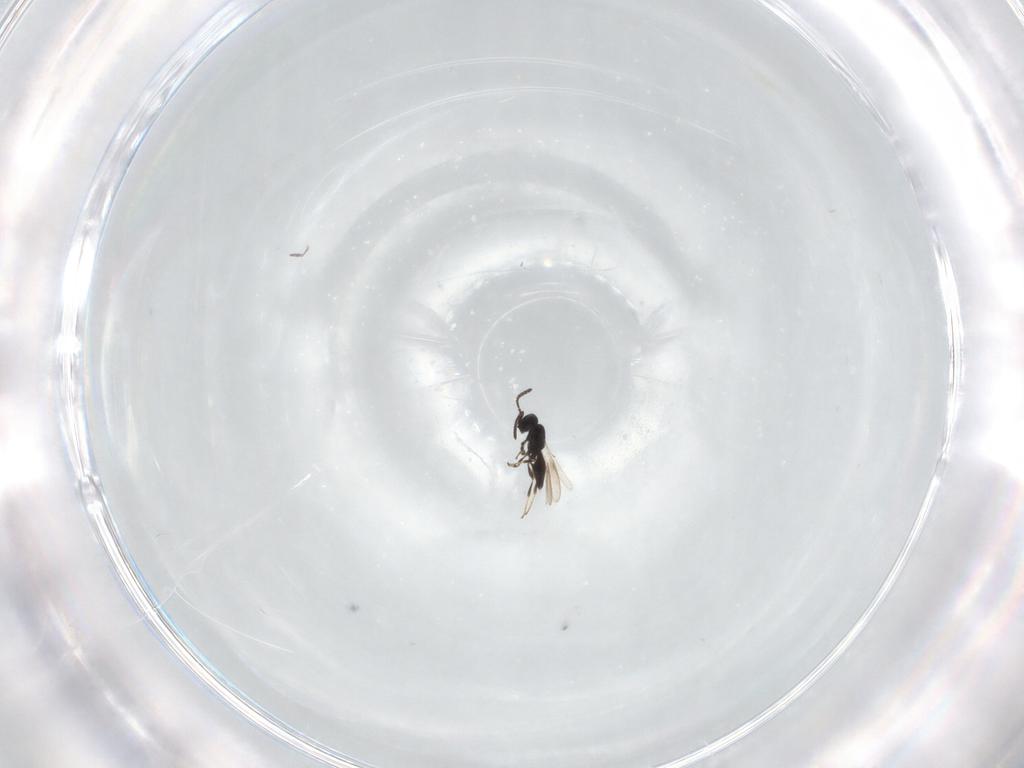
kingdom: Animalia
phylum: Arthropoda
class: Insecta
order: Hymenoptera
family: Scelionidae
